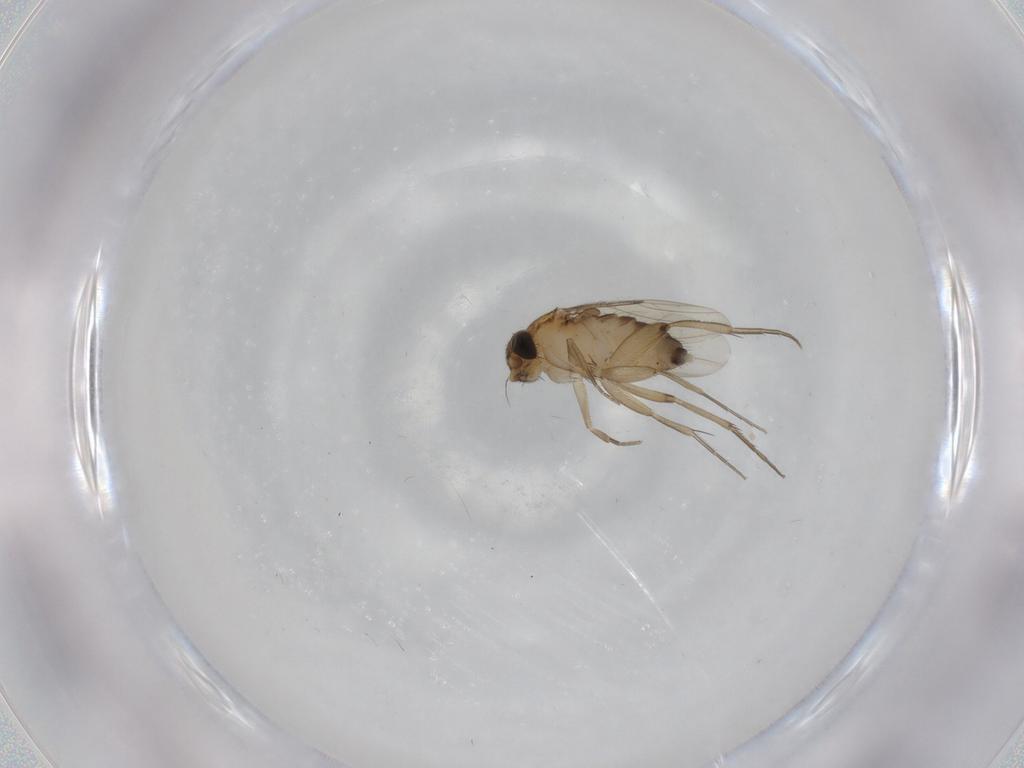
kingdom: Animalia
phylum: Arthropoda
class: Insecta
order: Diptera
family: Phoridae
